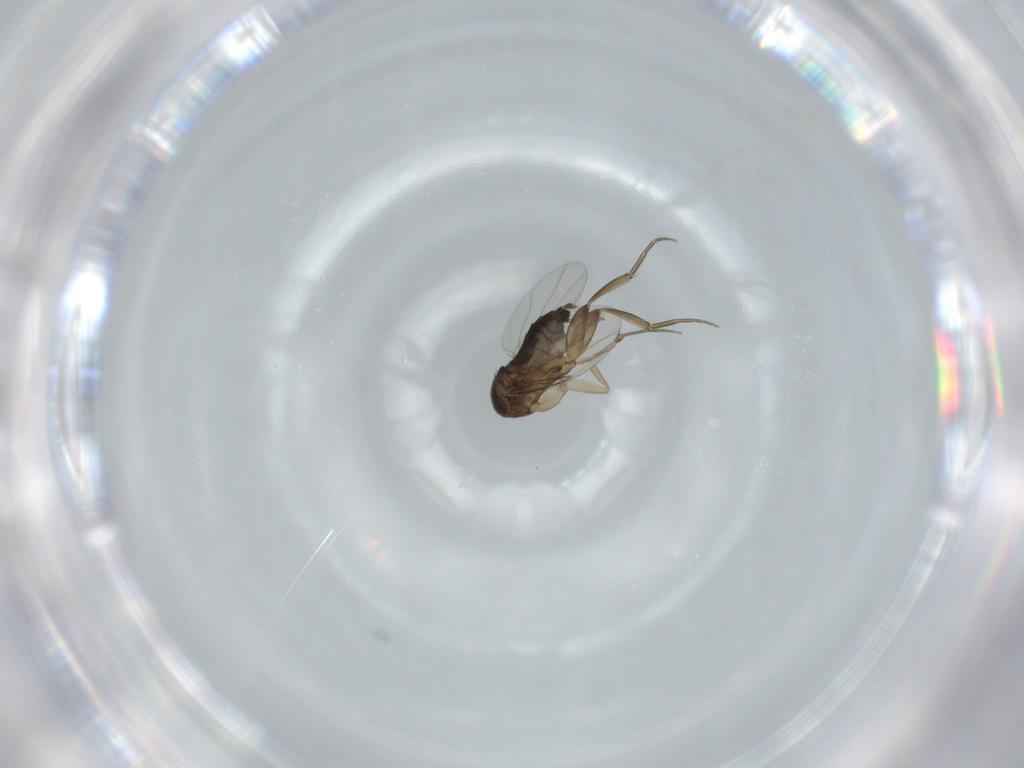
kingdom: Animalia
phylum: Arthropoda
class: Insecta
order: Diptera
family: Phoridae
